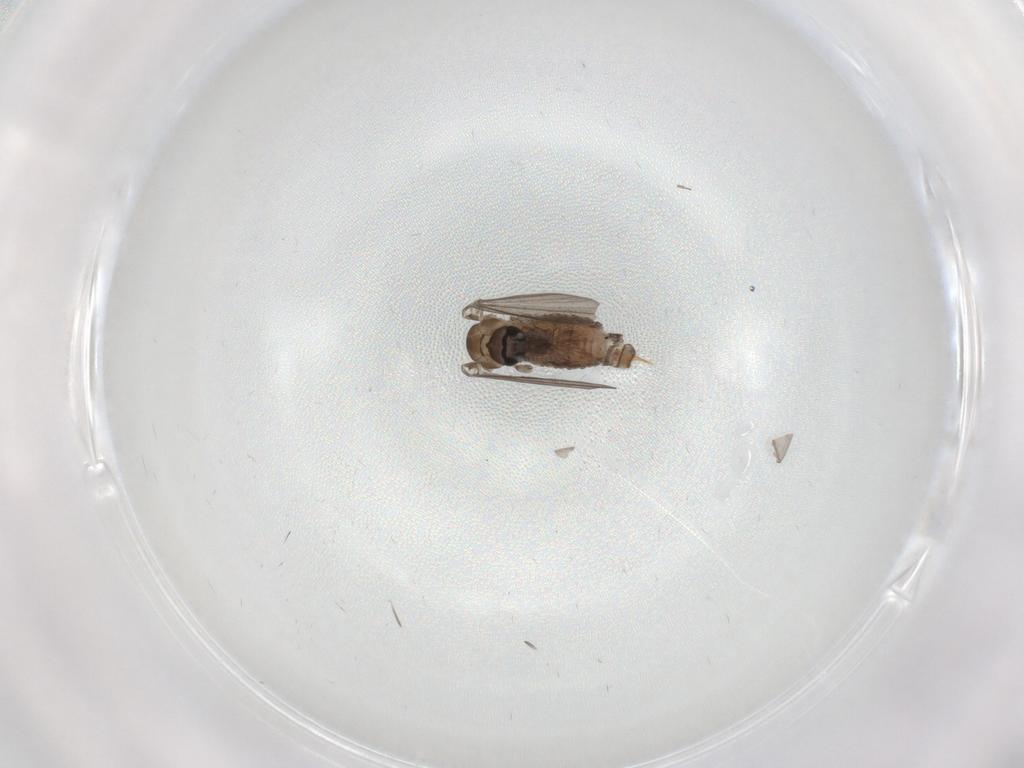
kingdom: Animalia
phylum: Arthropoda
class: Insecta
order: Diptera
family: Psychodidae
